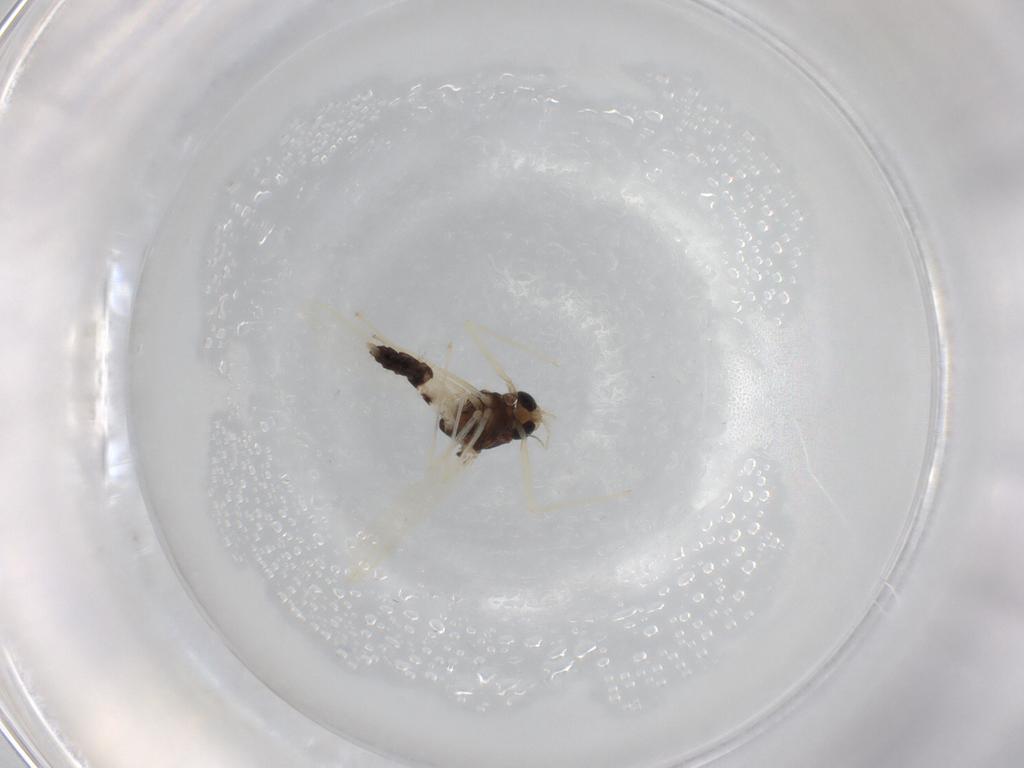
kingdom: Animalia
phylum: Arthropoda
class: Insecta
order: Diptera
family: Chironomidae
